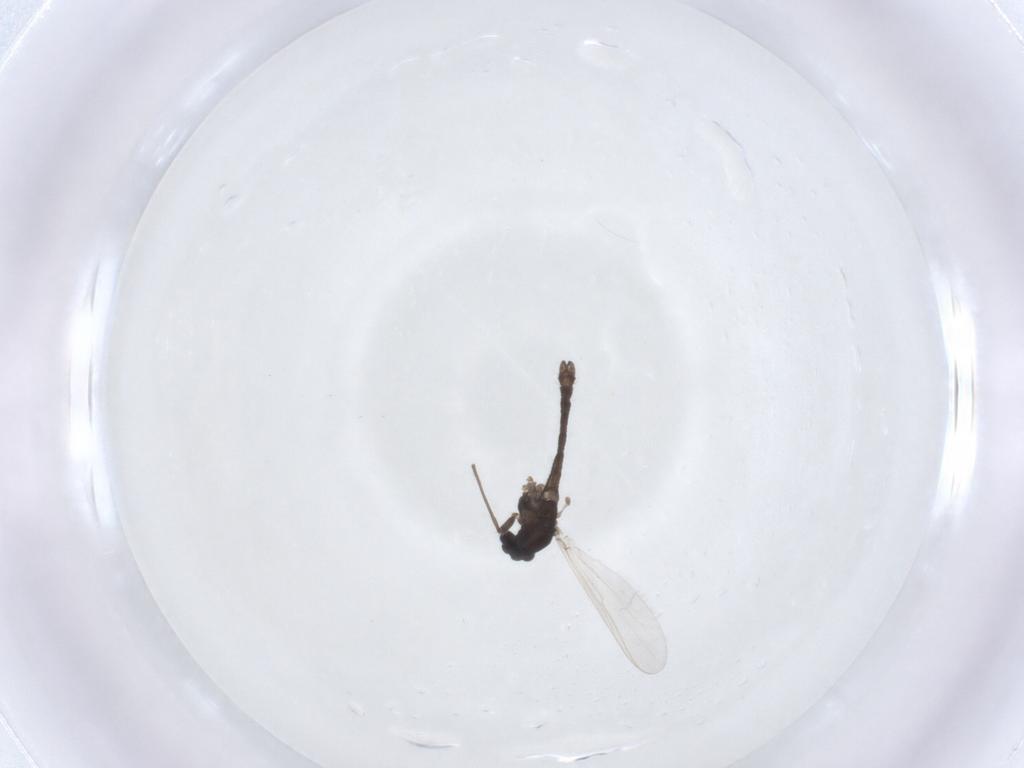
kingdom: Animalia
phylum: Arthropoda
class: Insecta
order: Diptera
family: Chironomidae
